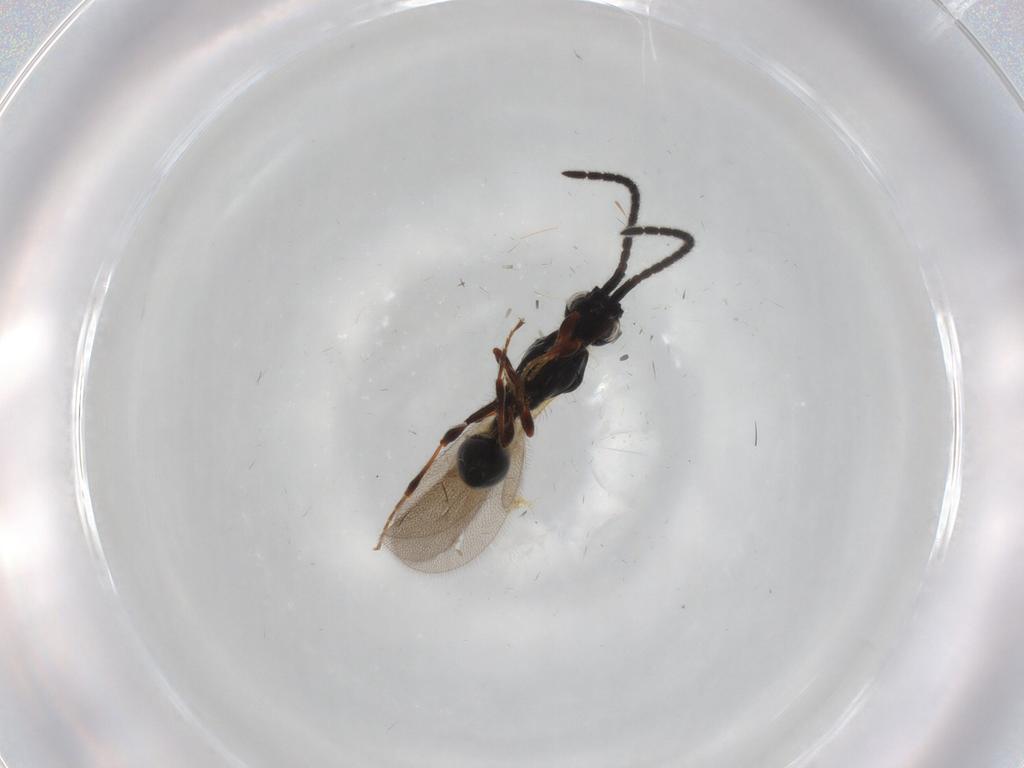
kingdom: Animalia
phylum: Arthropoda
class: Insecta
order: Hymenoptera
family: Diapriidae
